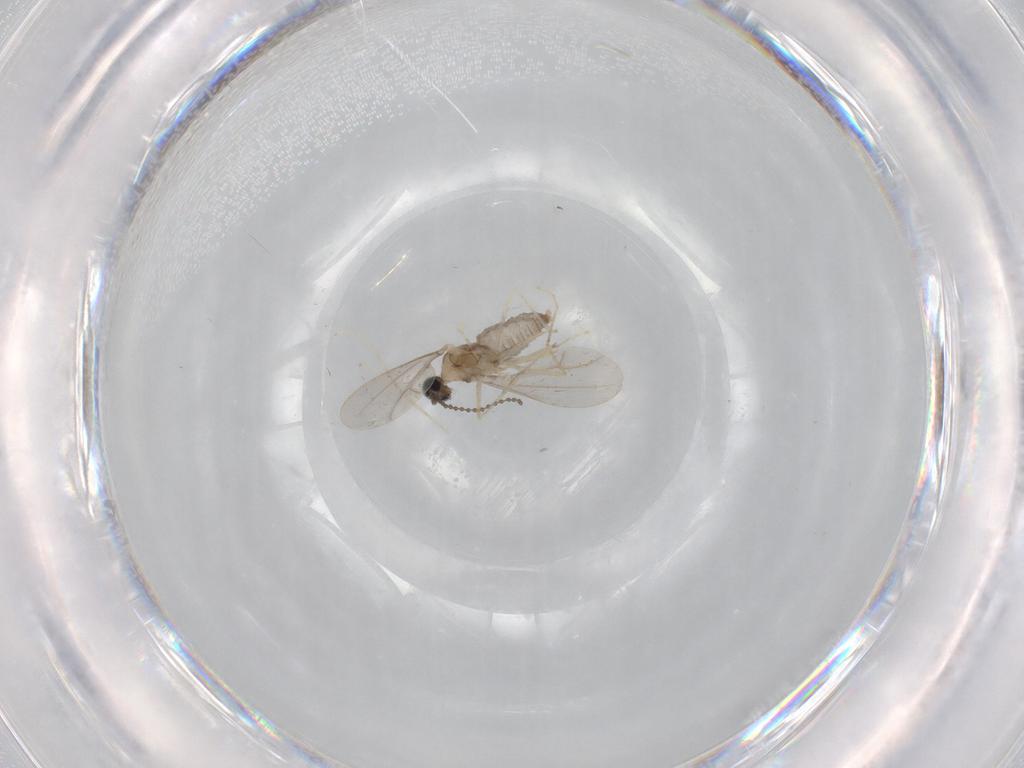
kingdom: Animalia
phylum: Arthropoda
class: Insecta
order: Diptera
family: Cecidomyiidae
